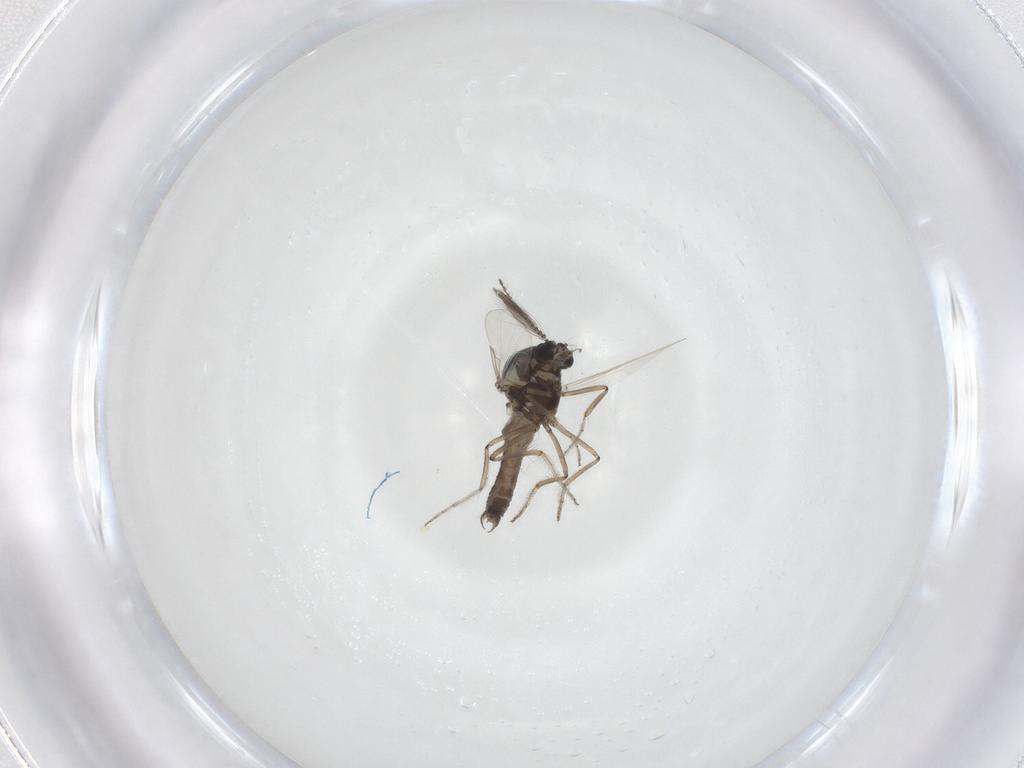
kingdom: Animalia
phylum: Arthropoda
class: Insecta
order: Diptera
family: Ceratopogonidae
